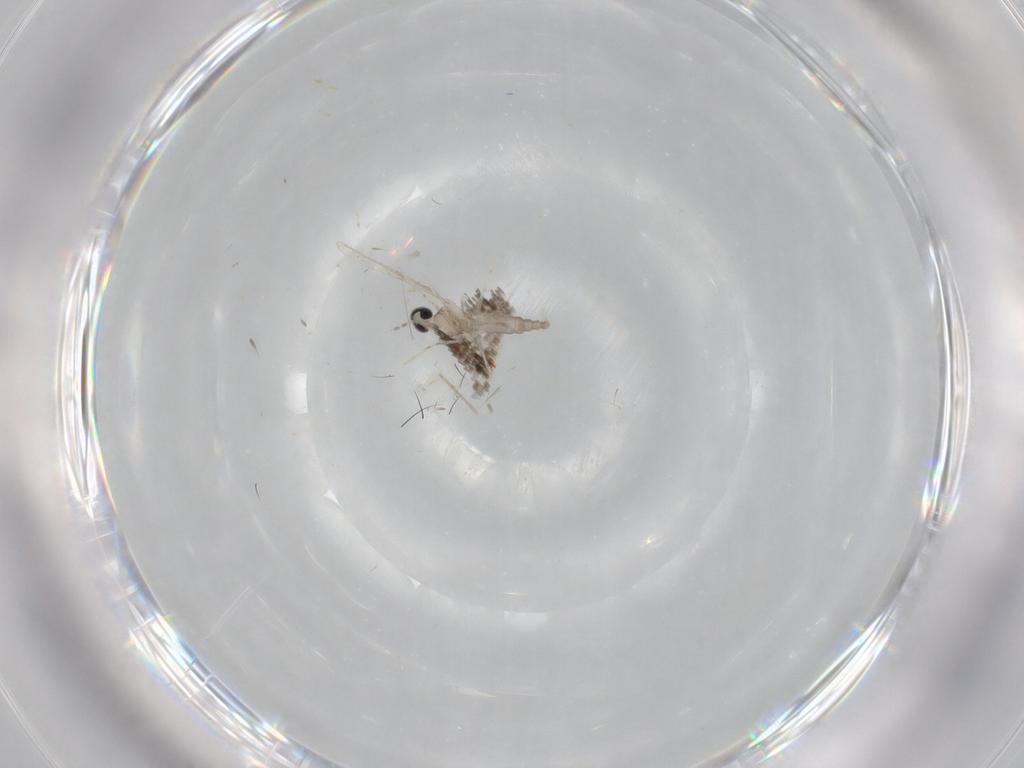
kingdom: Animalia
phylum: Arthropoda
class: Insecta
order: Diptera
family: Cecidomyiidae
